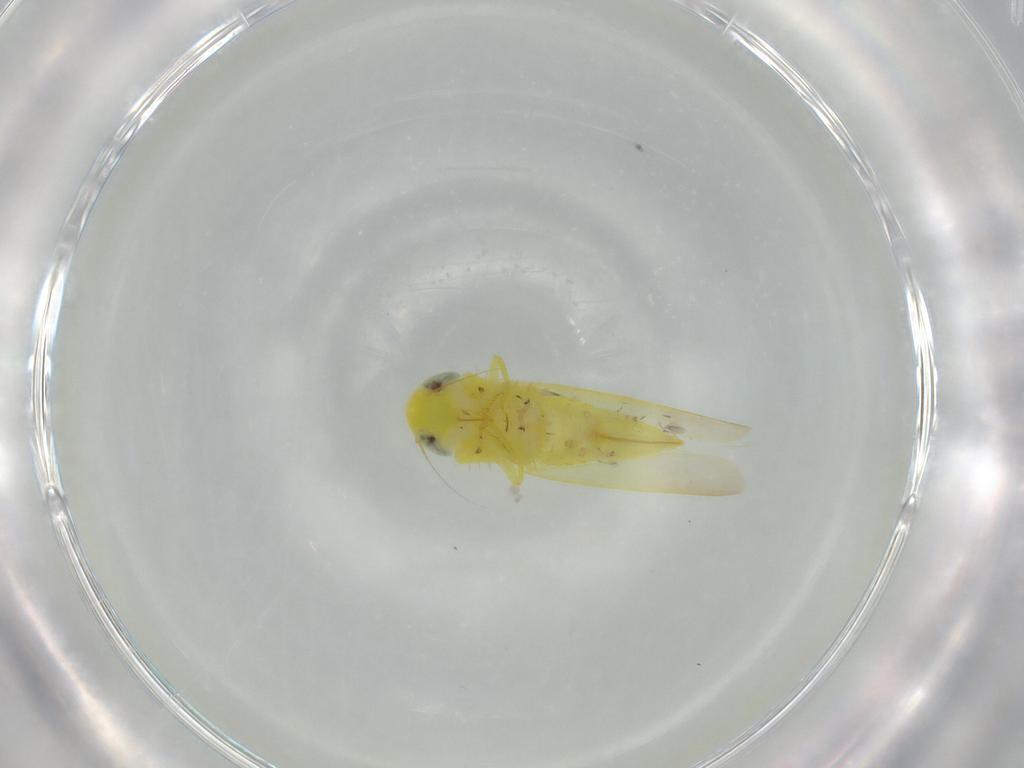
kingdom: Animalia
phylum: Arthropoda
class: Insecta
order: Hemiptera
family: Cicadellidae
